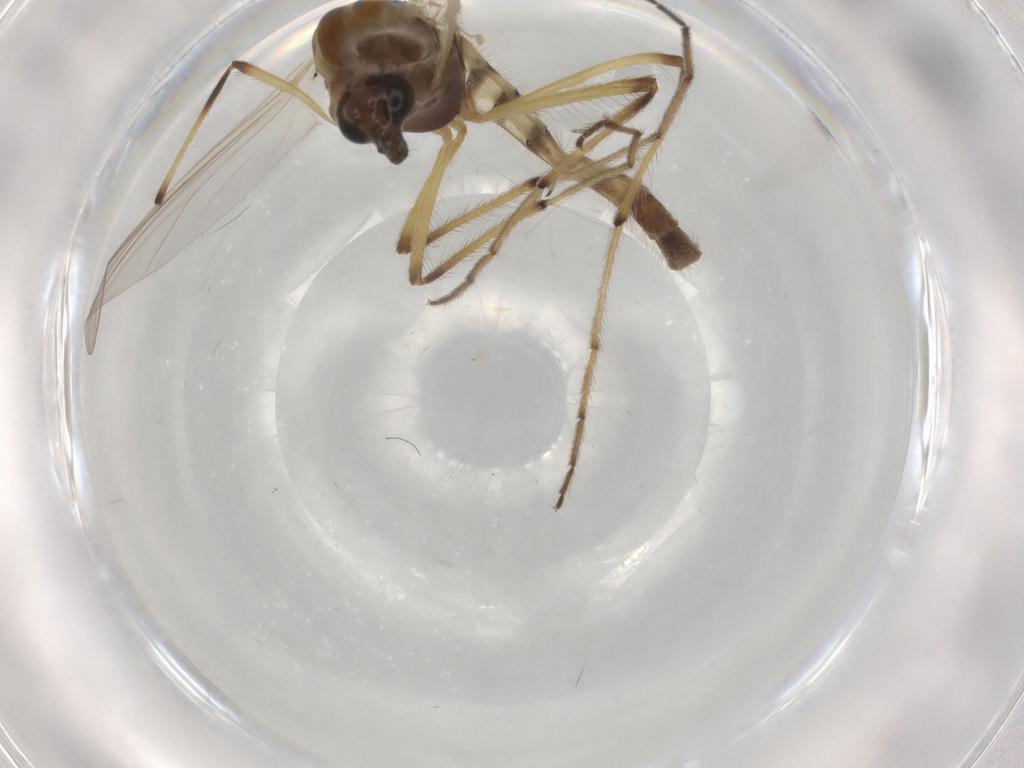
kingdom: Animalia
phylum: Arthropoda
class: Insecta
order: Diptera
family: Chironomidae
